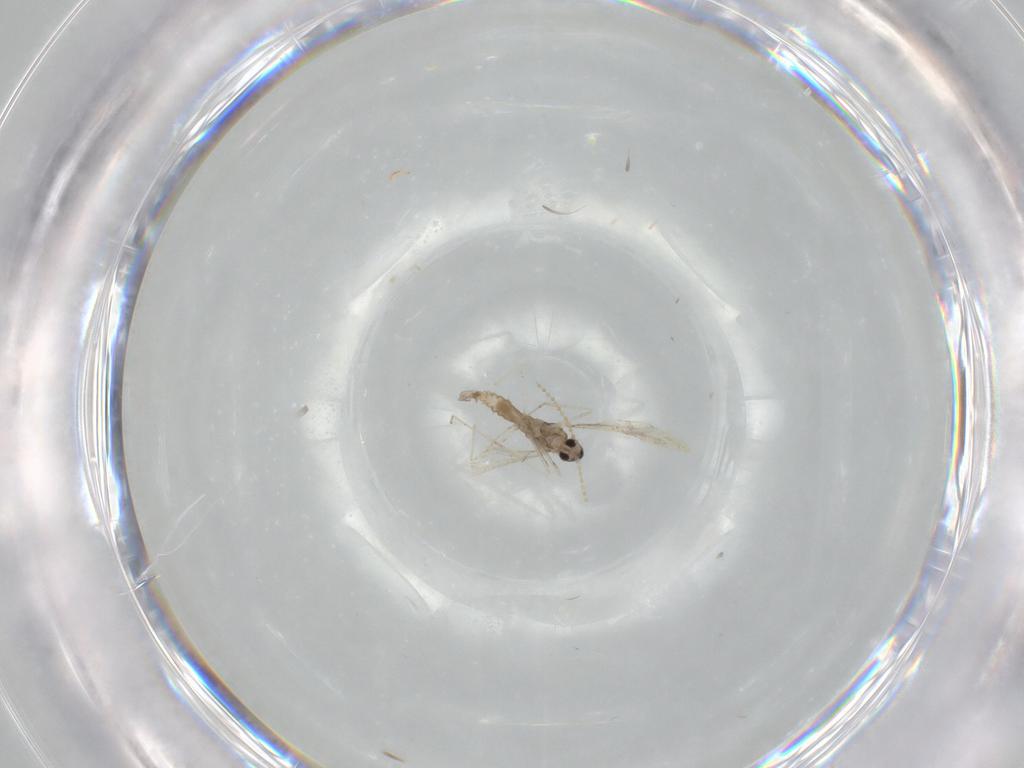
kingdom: Animalia
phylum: Arthropoda
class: Insecta
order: Diptera
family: Cecidomyiidae
